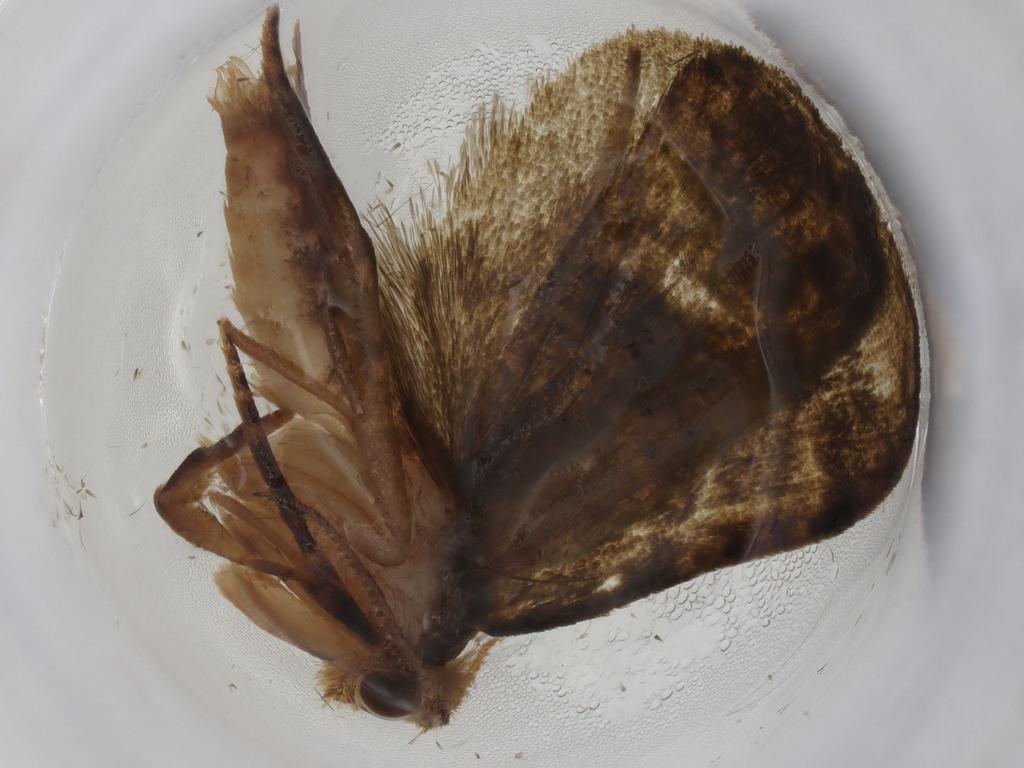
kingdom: Animalia
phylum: Arthropoda
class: Insecta
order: Lepidoptera
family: Geometridae
